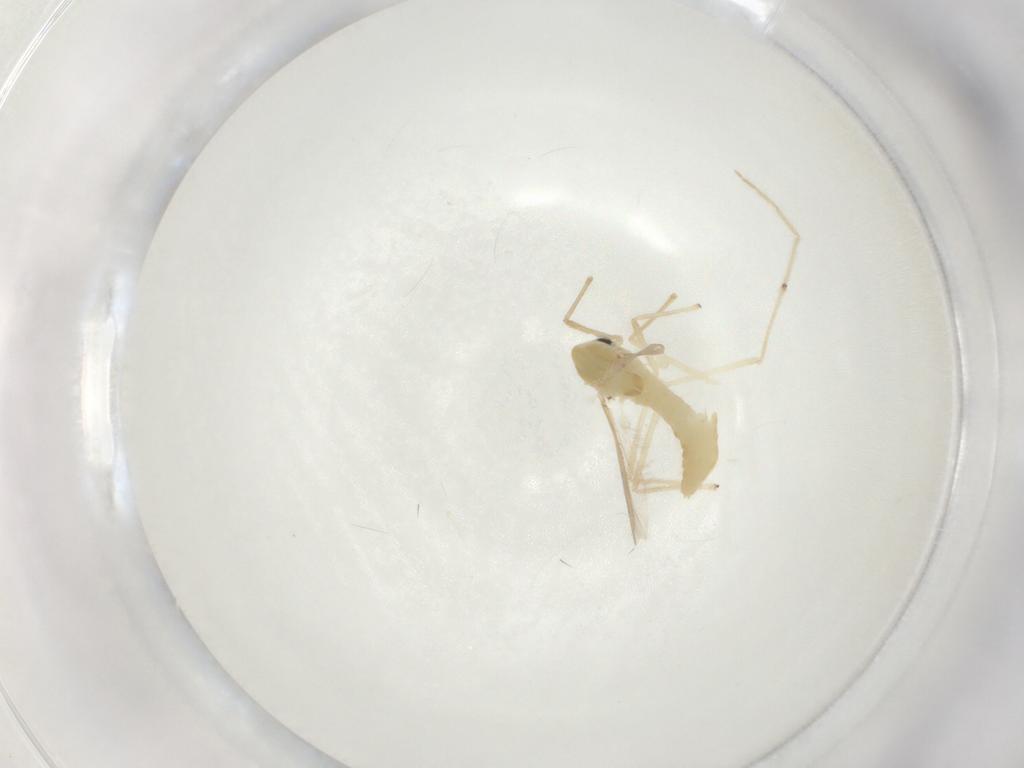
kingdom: Animalia
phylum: Arthropoda
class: Insecta
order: Diptera
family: Chironomidae
